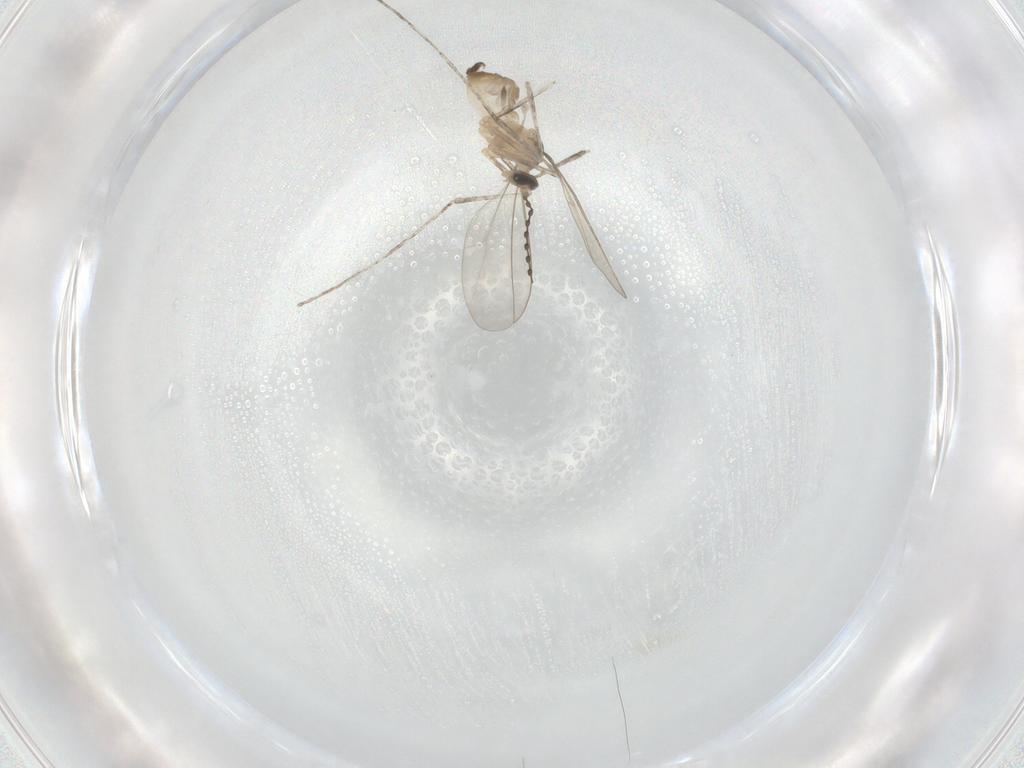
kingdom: Animalia
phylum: Arthropoda
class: Insecta
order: Diptera
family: Cecidomyiidae
